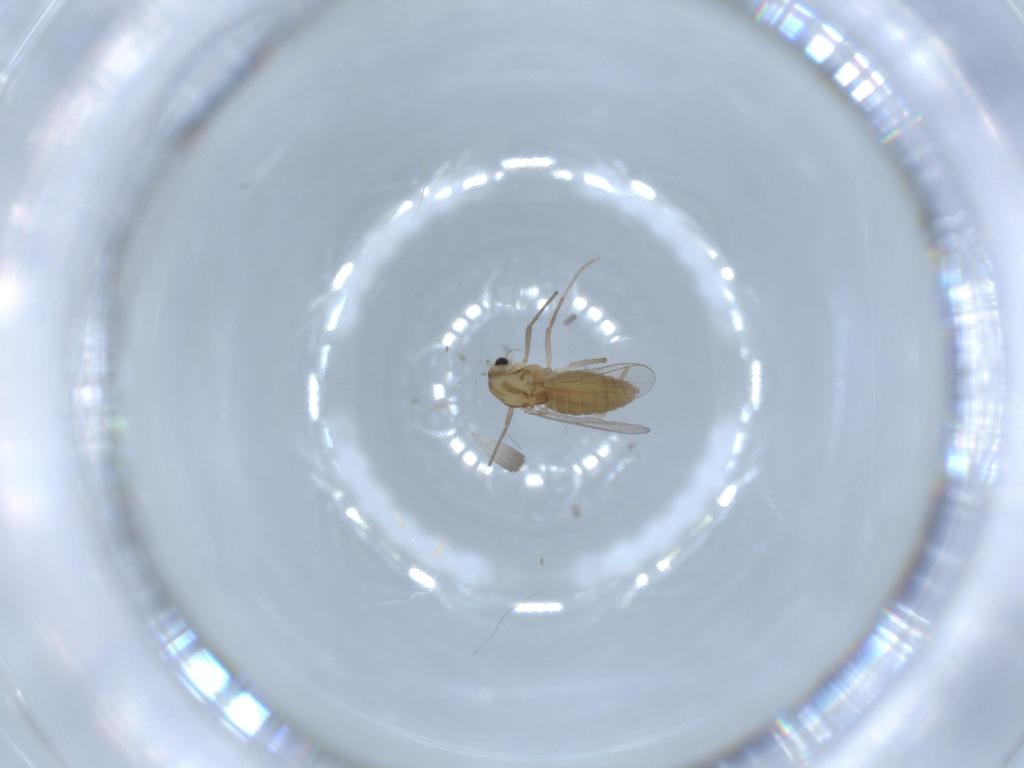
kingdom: Animalia
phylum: Arthropoda
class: Insecta
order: Diptera
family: Chironomidae
